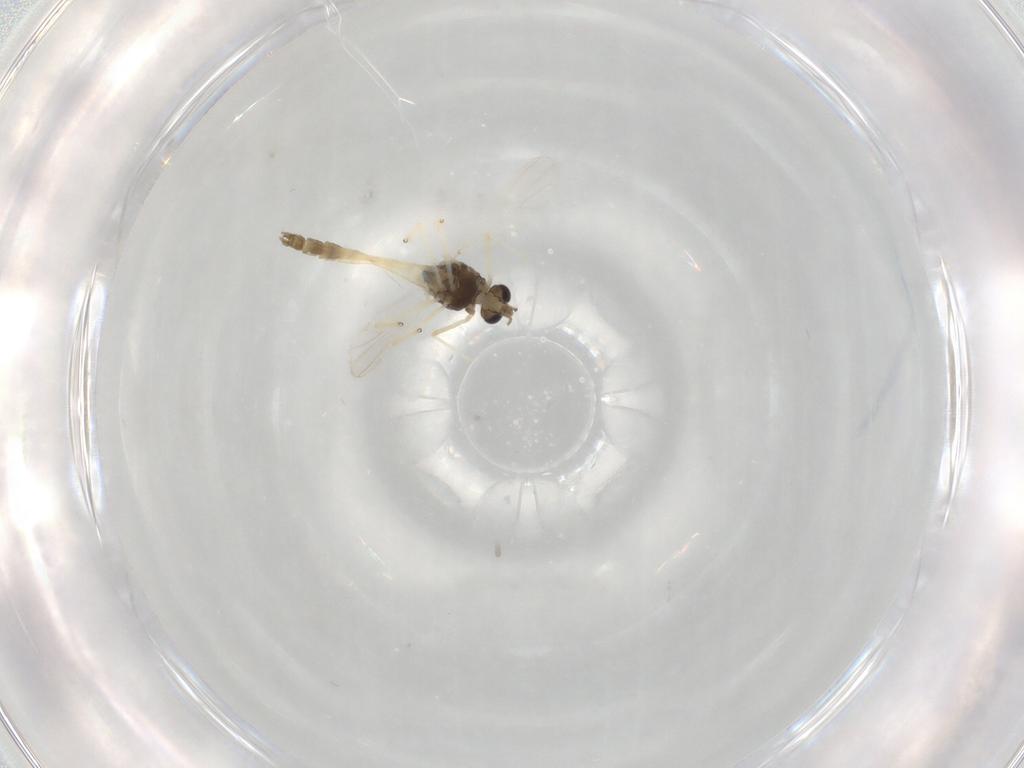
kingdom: Animalia
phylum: Arthropoda
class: Insecta
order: Diptera
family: Chironomidae
